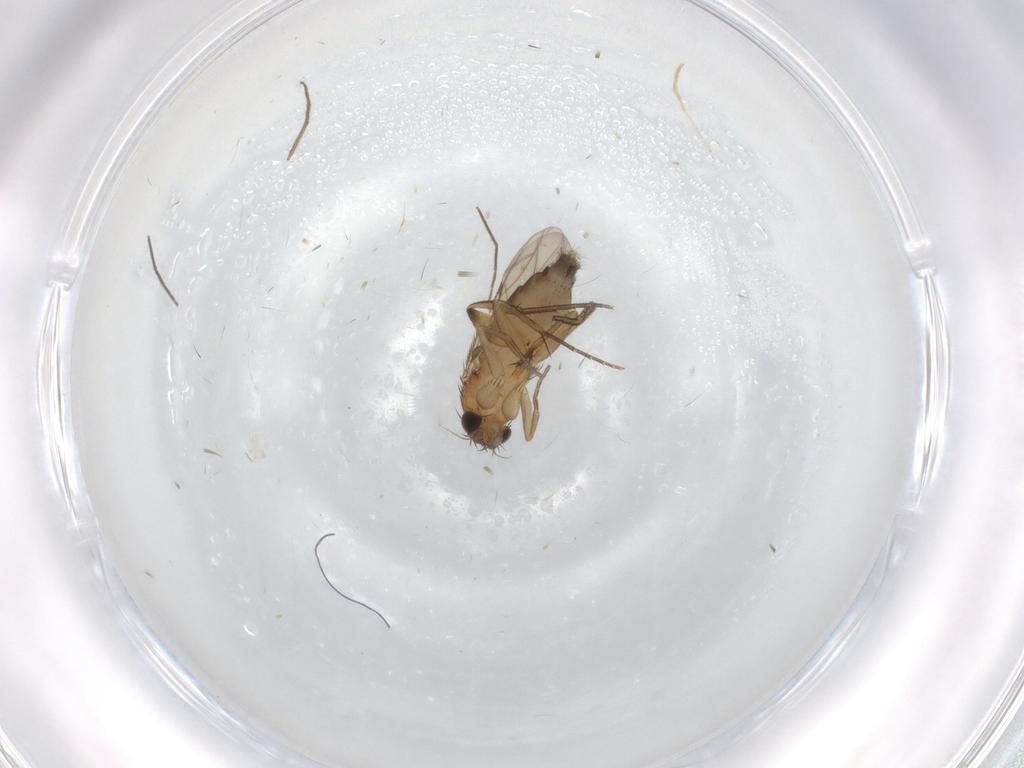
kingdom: Animalia
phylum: Arthropoda
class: Insecta
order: Diptera
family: Phoridae
